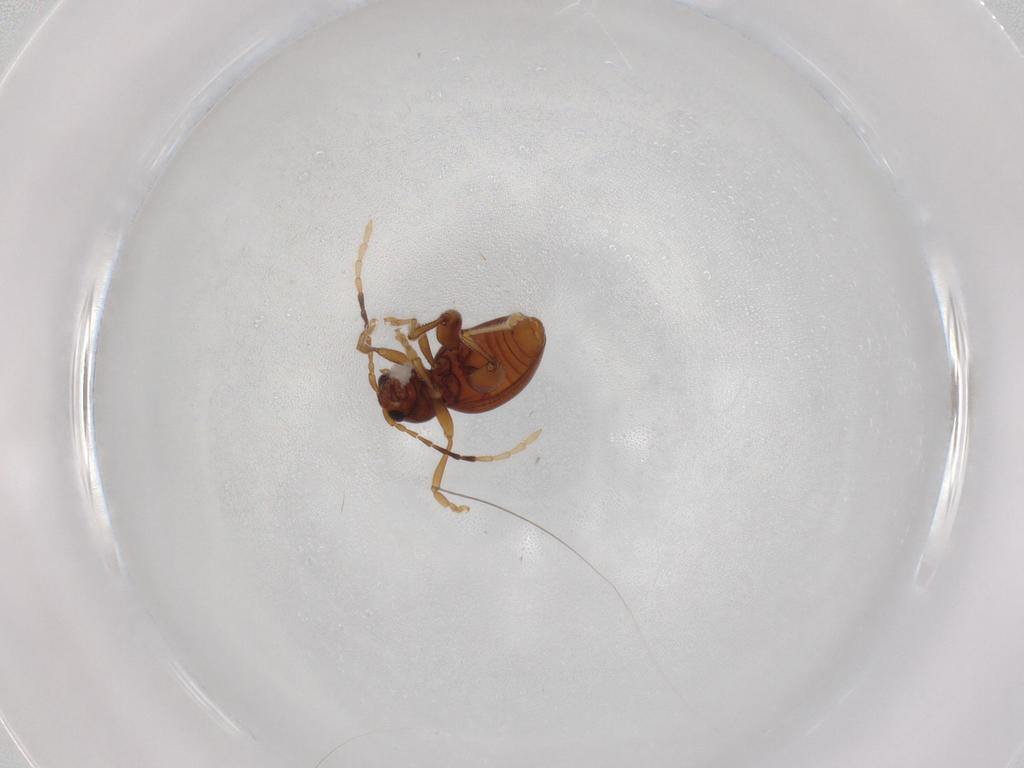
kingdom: Animalia
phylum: Arthropoda
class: Insecta
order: Coleoptera
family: Chrysomelidae
